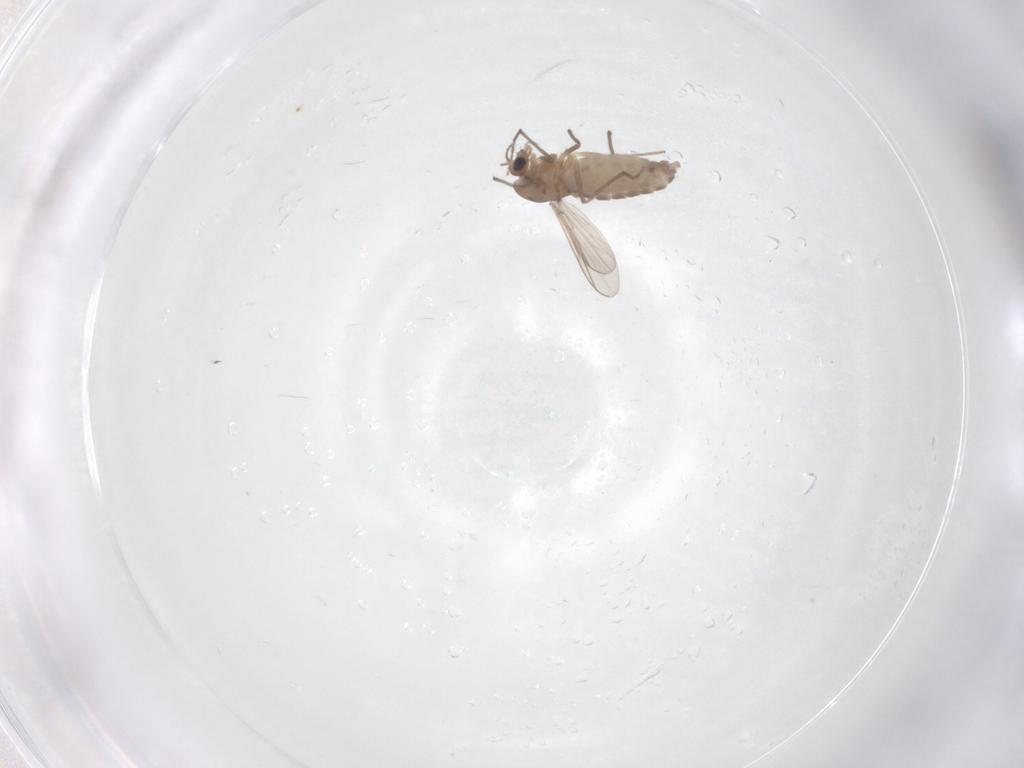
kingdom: Animalia
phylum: Arthropoda
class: Insecta
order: Diptera
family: Chironomidae
